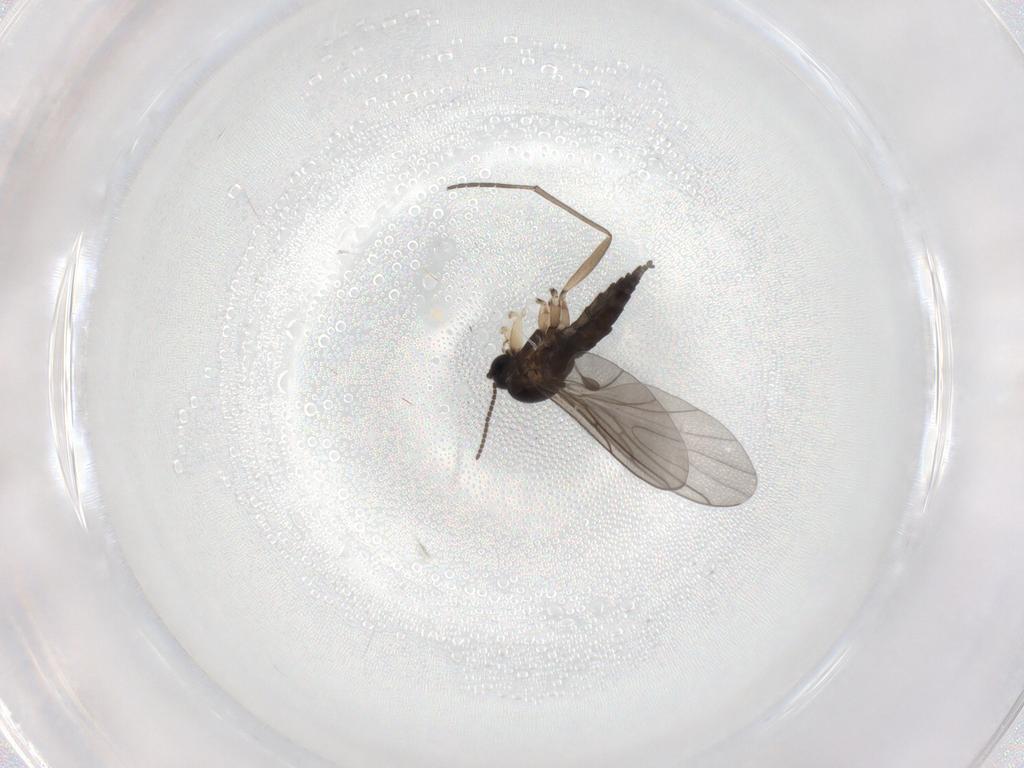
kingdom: Animalia
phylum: Arthropoda
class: Insecta
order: Diptera
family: Sciaridae
